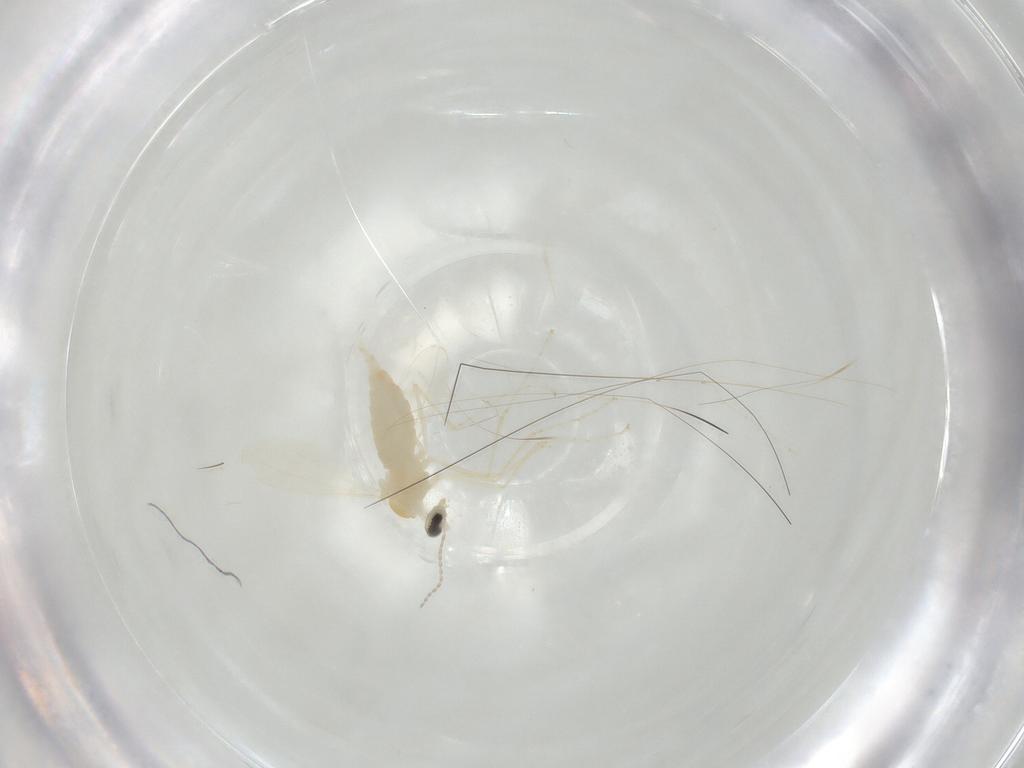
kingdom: Animalia
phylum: Arthropoda
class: Insecta
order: Diptera
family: Cecidomyiidae
